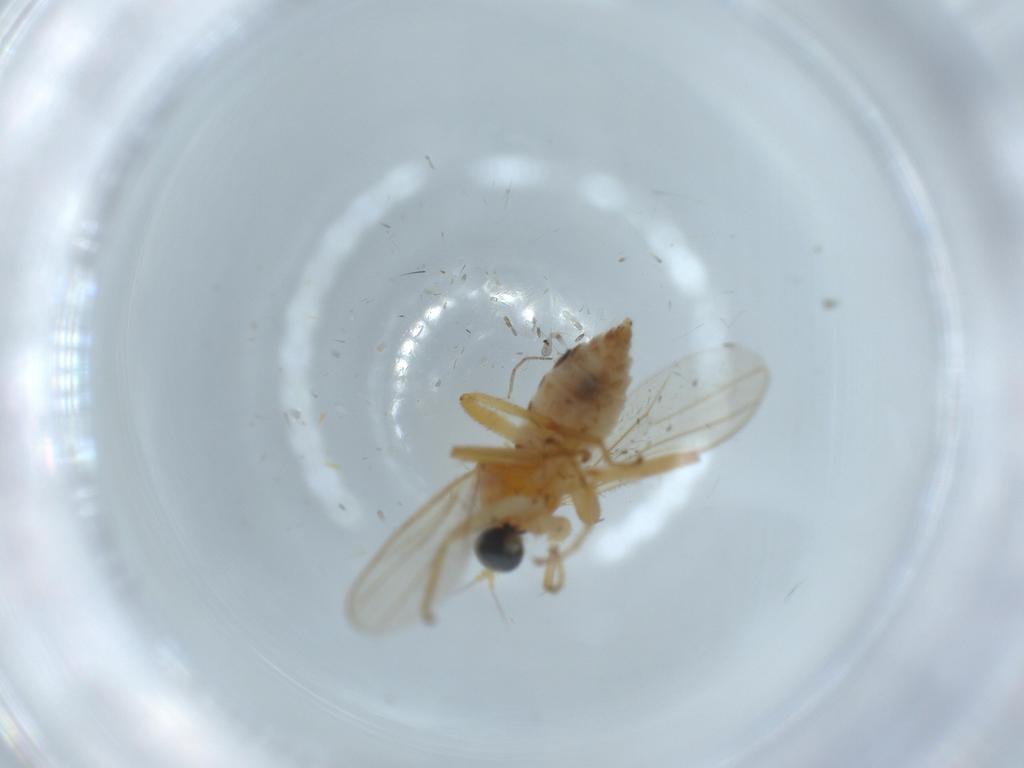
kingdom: Animalia
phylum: Arthropoda
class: Insecta
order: Diptera
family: Hybotidae
